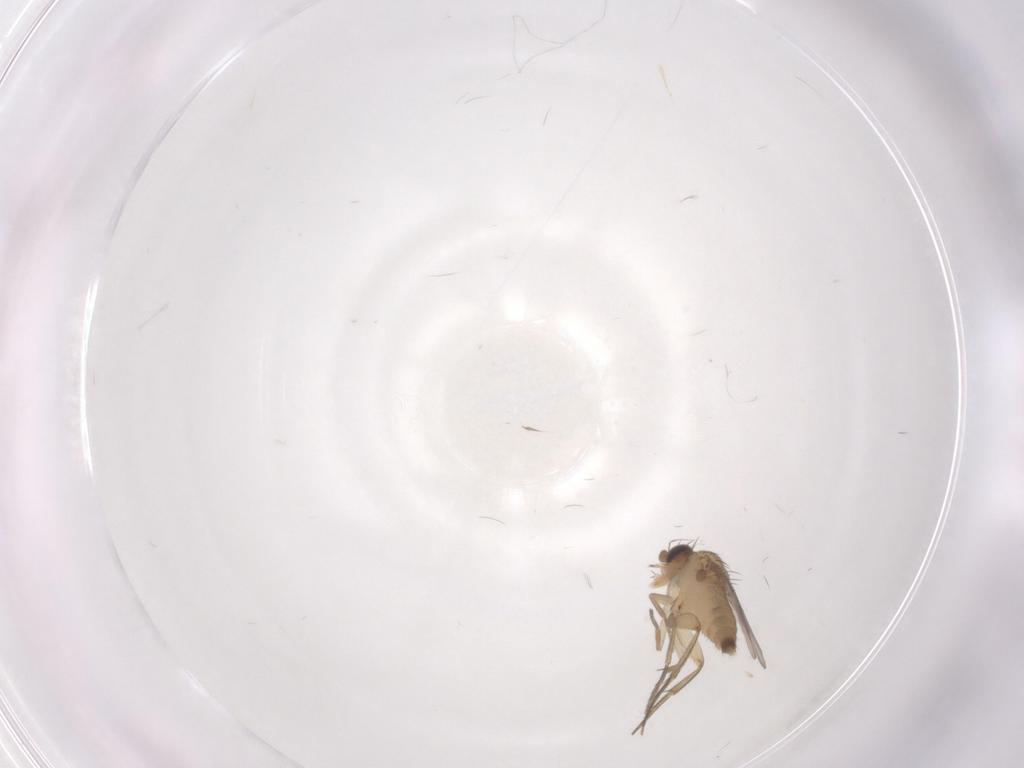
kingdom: Animalia
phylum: Arthropoda
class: Insecta
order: Diptera
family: Phoridae
